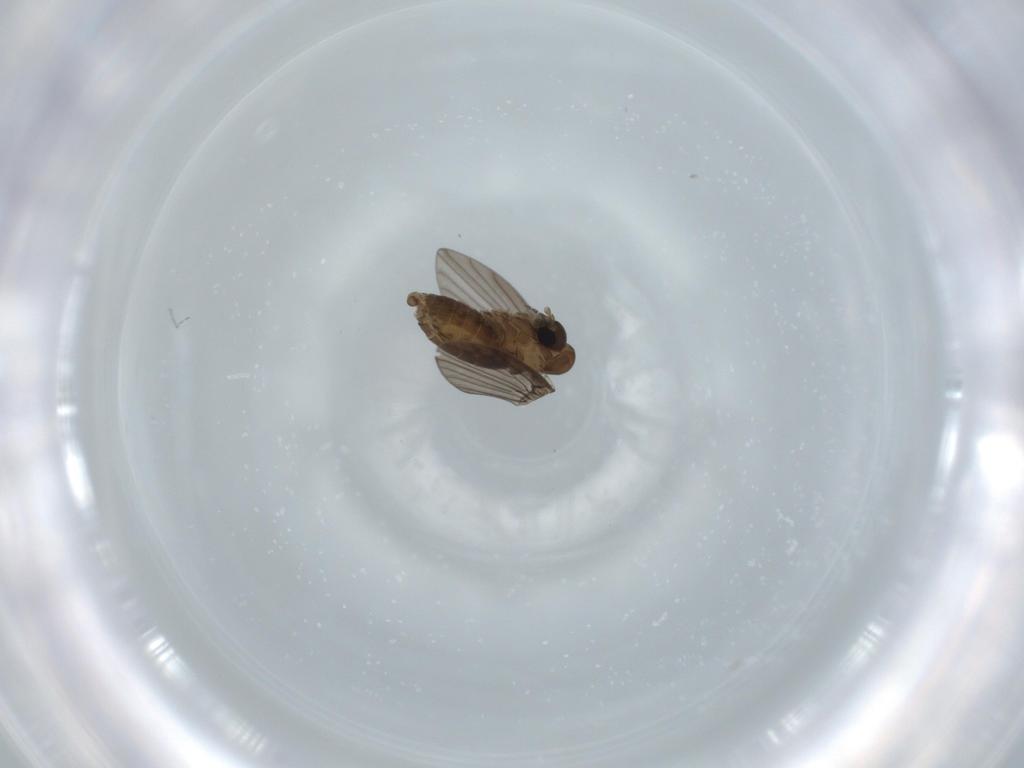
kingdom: Animalia
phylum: Arthropoda
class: Insecta
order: Diptera
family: Psychodidae
